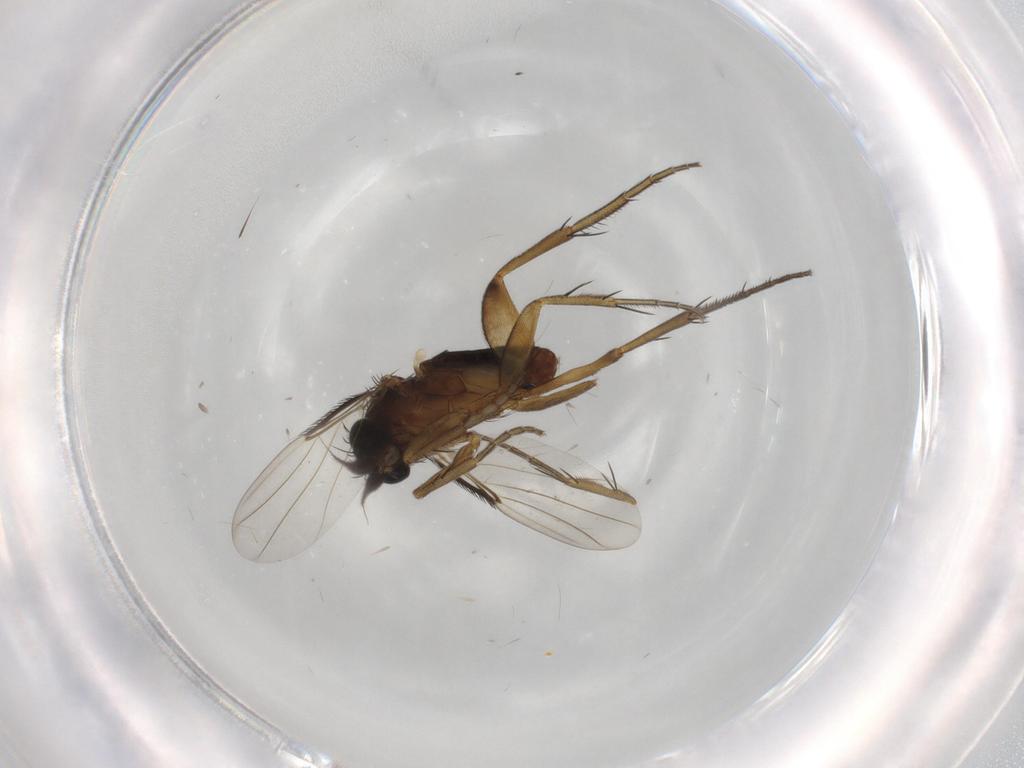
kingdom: Animalia
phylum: Arthropoda
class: Insecta
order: Diptera
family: Phoridae
